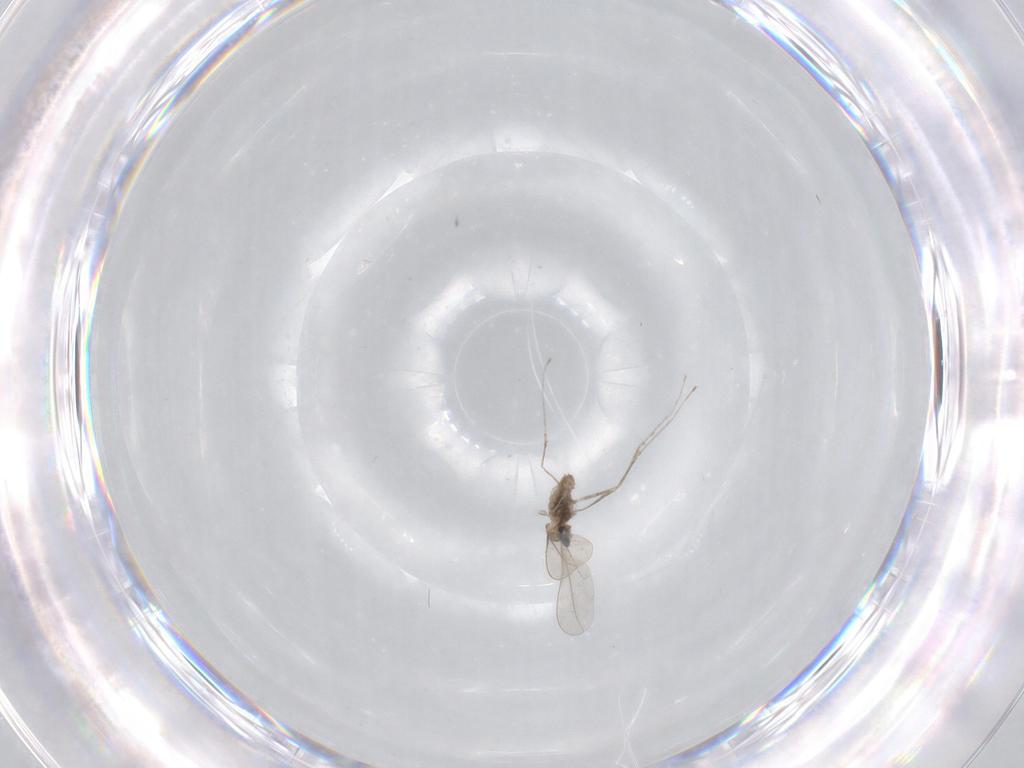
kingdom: Animalia
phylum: Arthropoda
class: Insecta
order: Diptera
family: Cecidomyiidae
